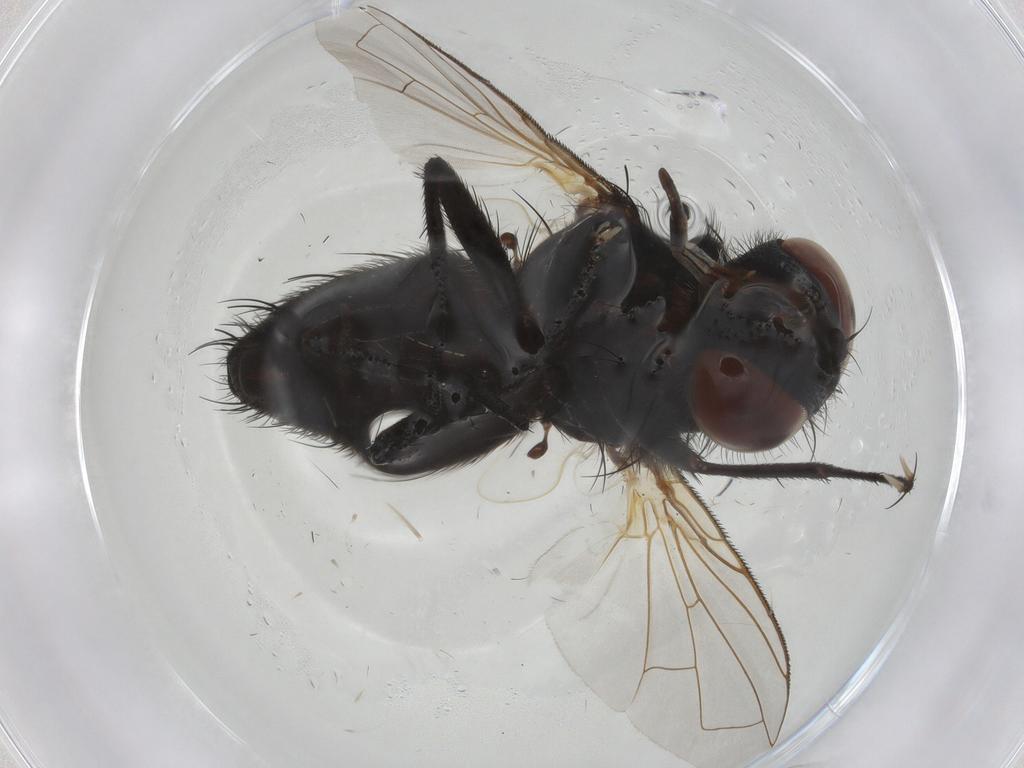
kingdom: Animalia
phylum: Arthropoda
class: Insecta
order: Diptera
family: Tachinidae
